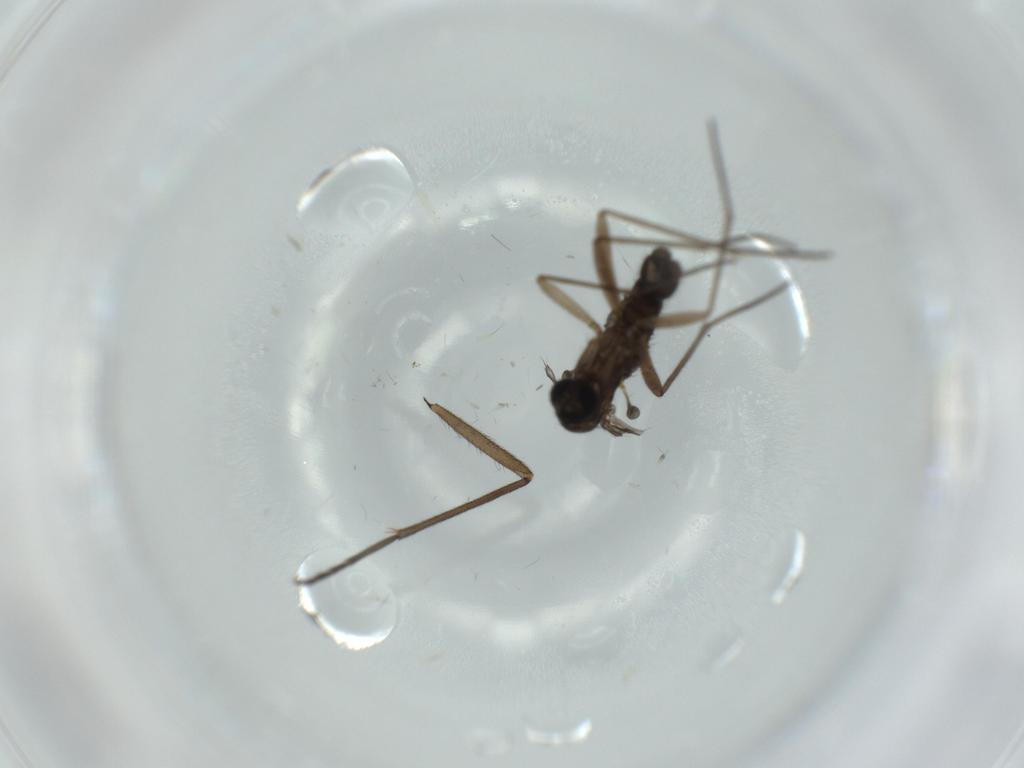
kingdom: Animalia
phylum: Arthropoda
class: Insecta
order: Diptera
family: Sciaridae
